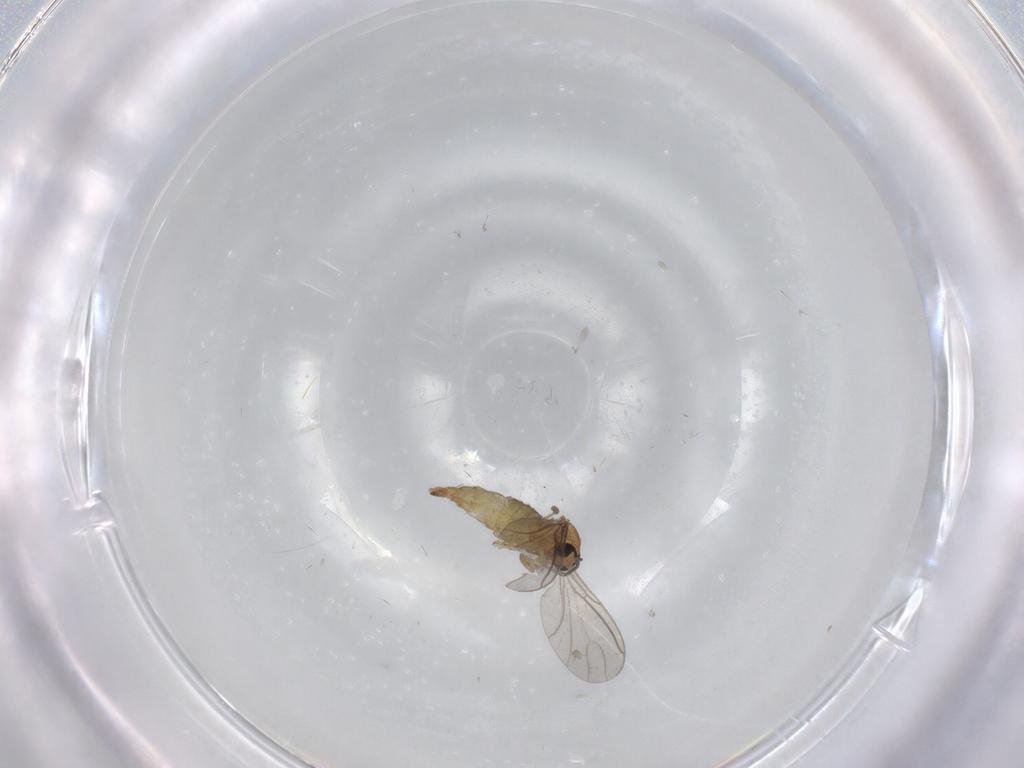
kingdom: Animalia
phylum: Arthropoda
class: Insecta
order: Diptera
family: Sciaridae
